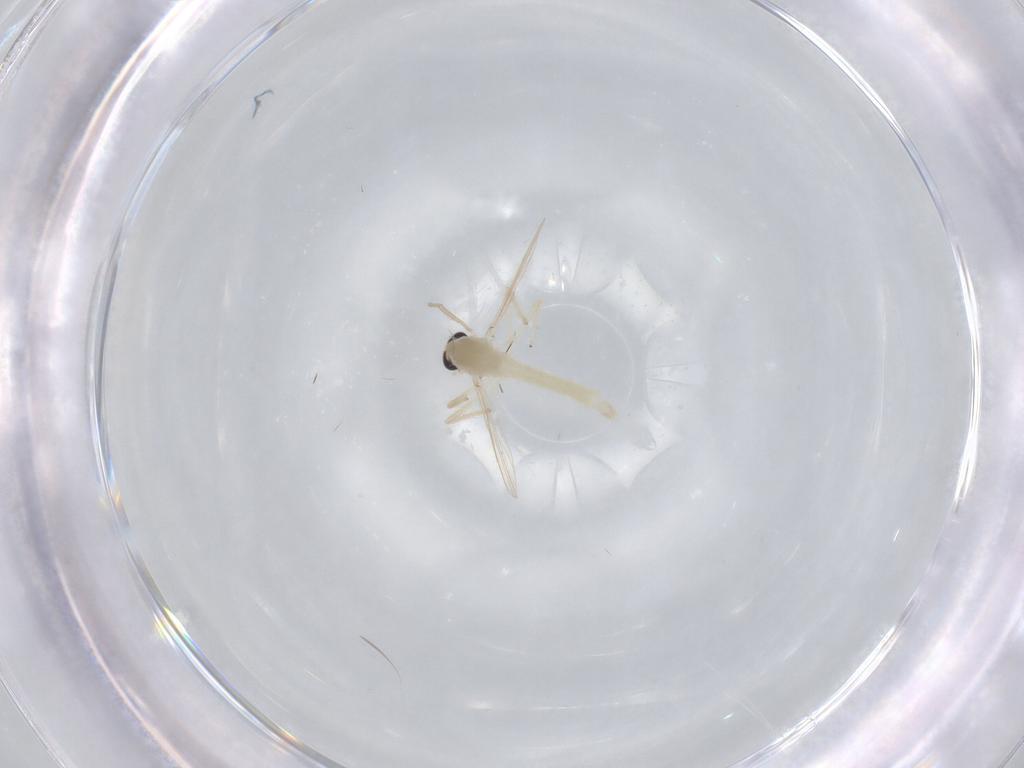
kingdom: Animalia
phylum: Arthropoda
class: Insecta
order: Diptera
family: Chironomidae
